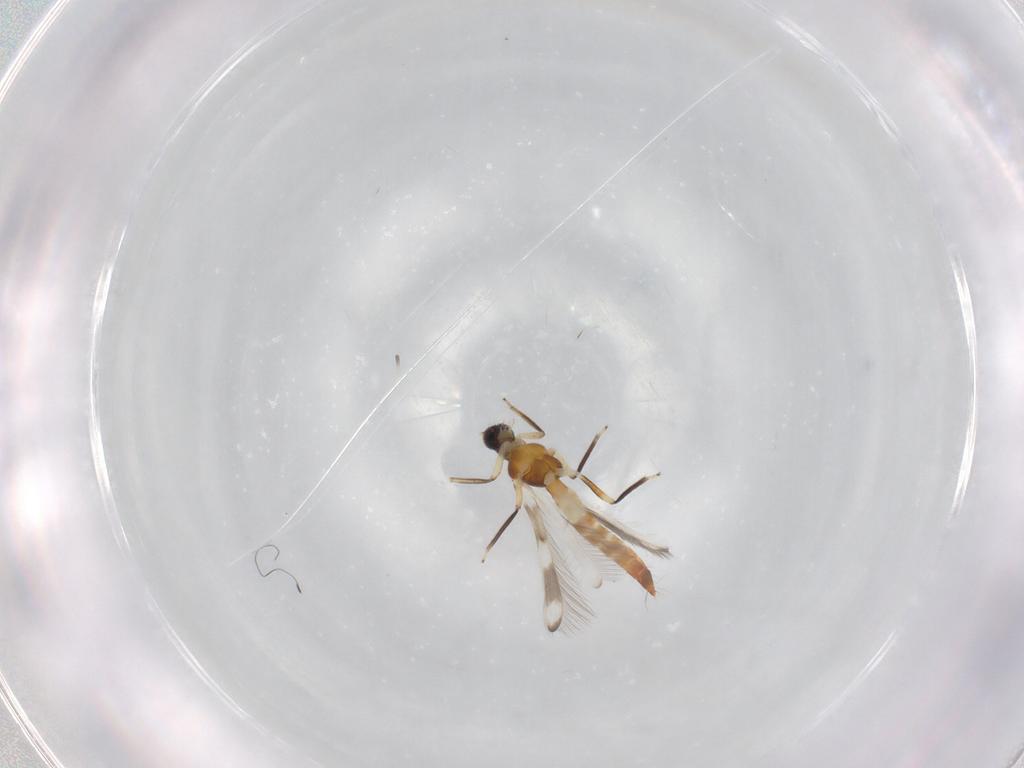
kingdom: Animalia
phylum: Arthropoda
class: Insecta
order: Thysanoptera
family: Aeolothripidae
